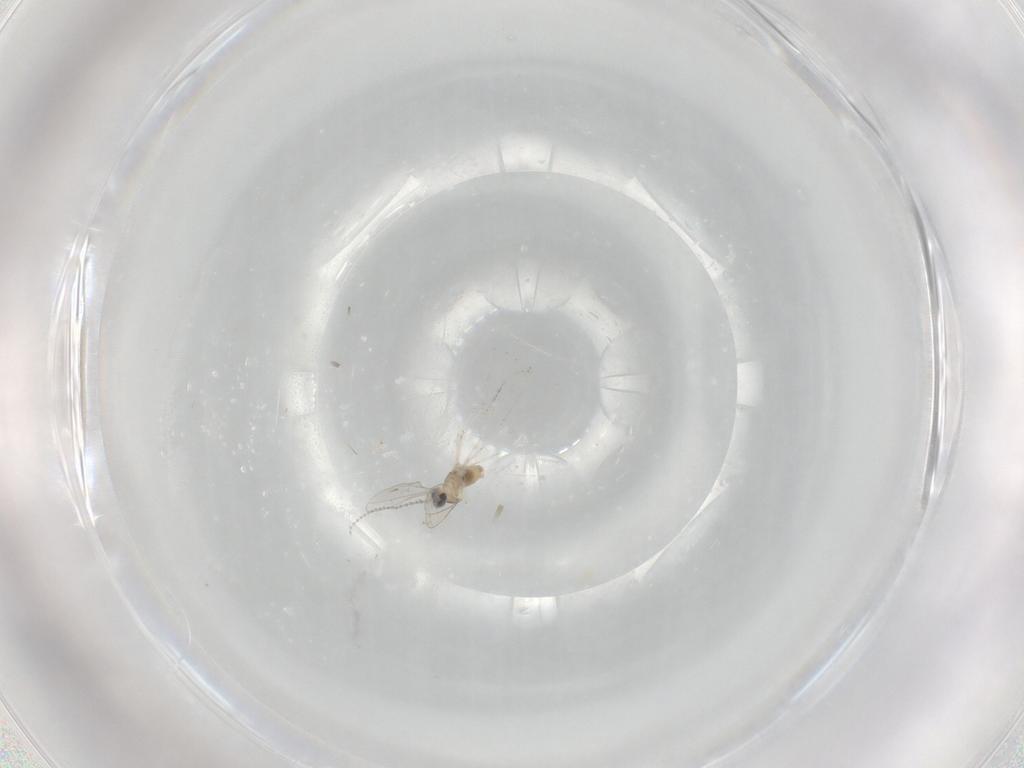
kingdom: Animalia
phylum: Arthropoda
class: Insecta
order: Diptera
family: Cecidomyiidae
